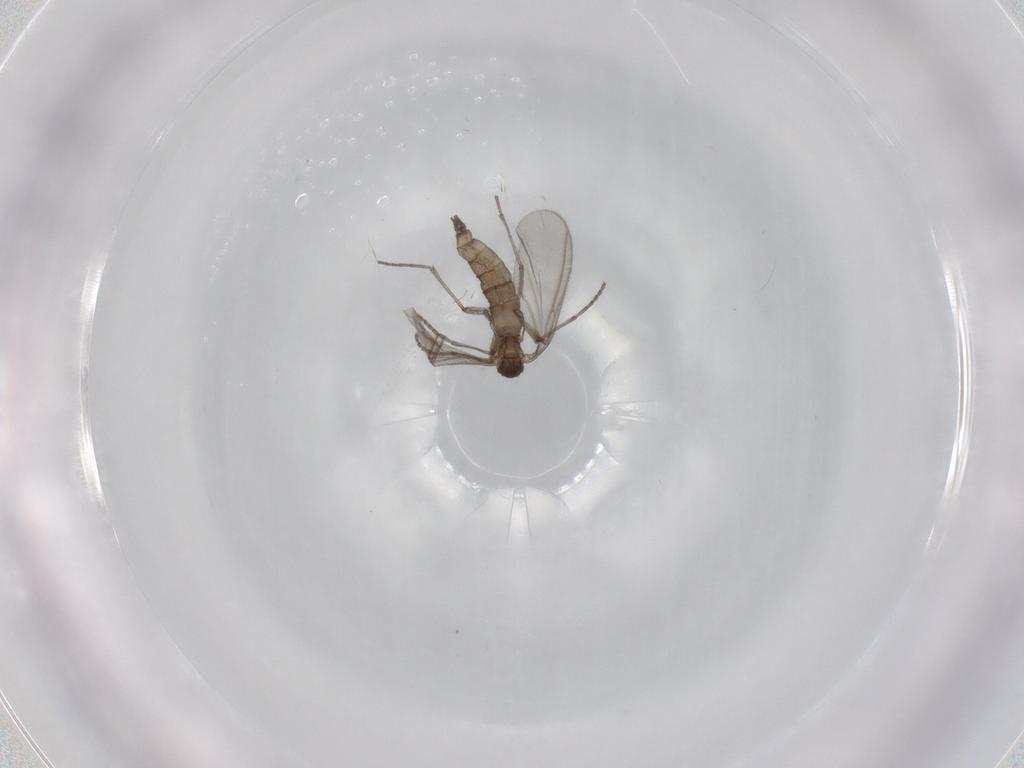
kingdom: Animalia
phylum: Arthropoda
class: Insecta
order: Diptera
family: Sciaridae
